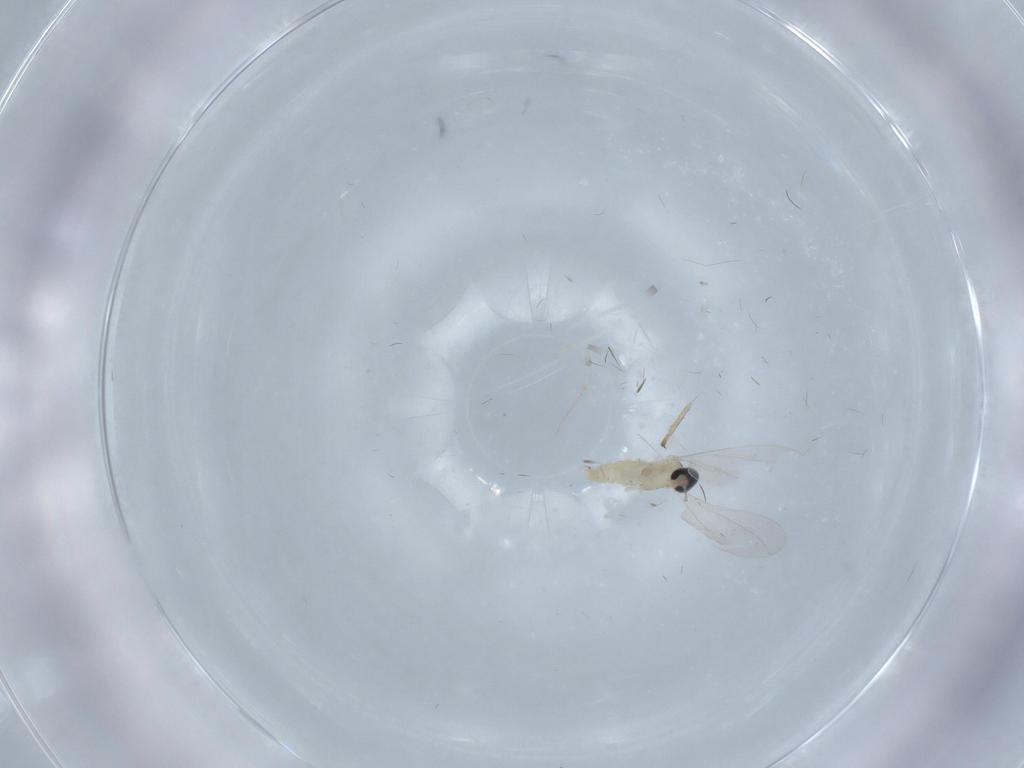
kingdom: Animalia
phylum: Arthropoda
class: Insecta
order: Diptera
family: Cecidomyiidae
